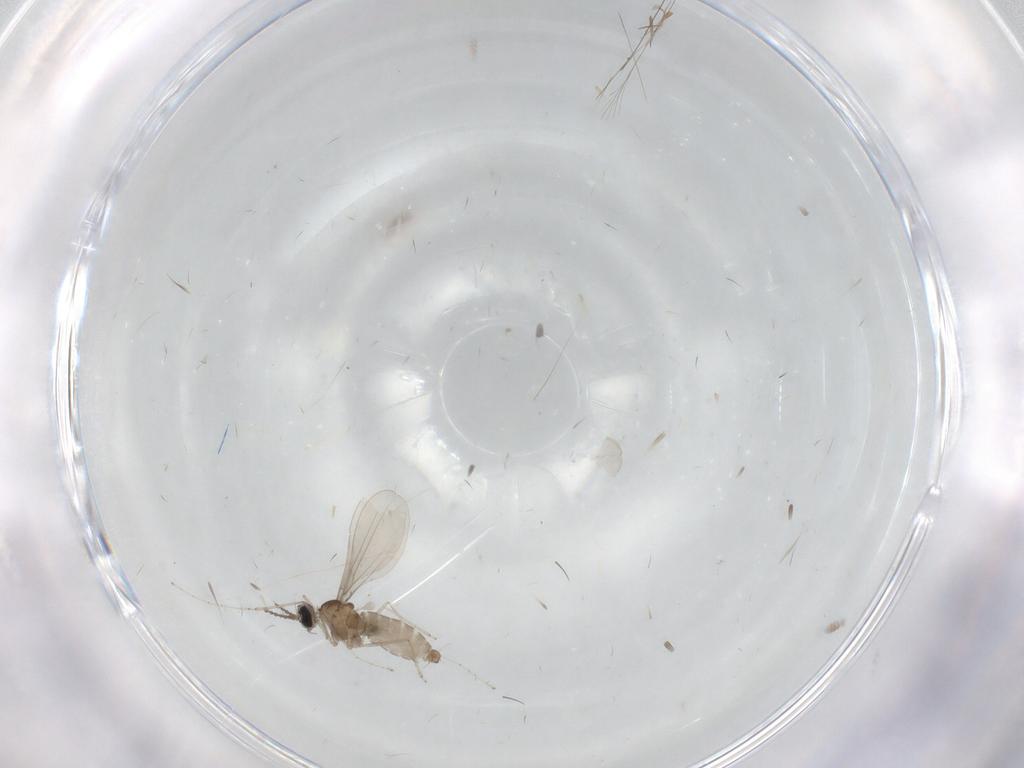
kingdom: Animalia
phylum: Arthropoda
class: Insecta
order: Diptera
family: Cecidomyiidae
